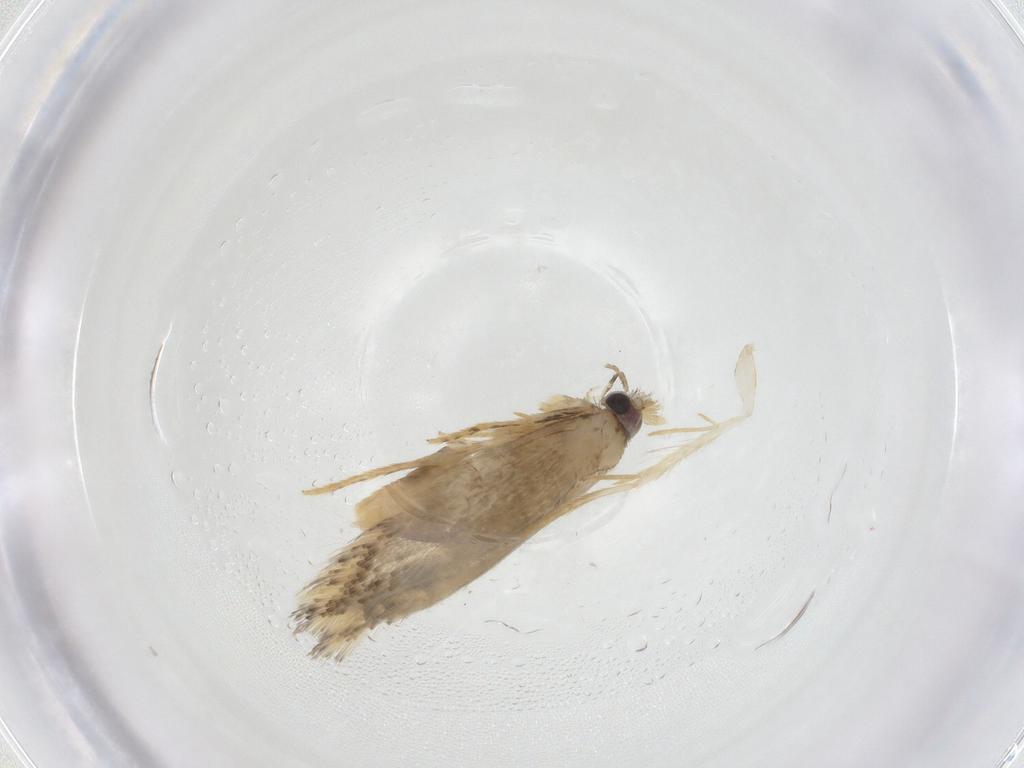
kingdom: Animalia
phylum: Arthropoda
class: Insecta
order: Lepidoptera
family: Nepticulidae
